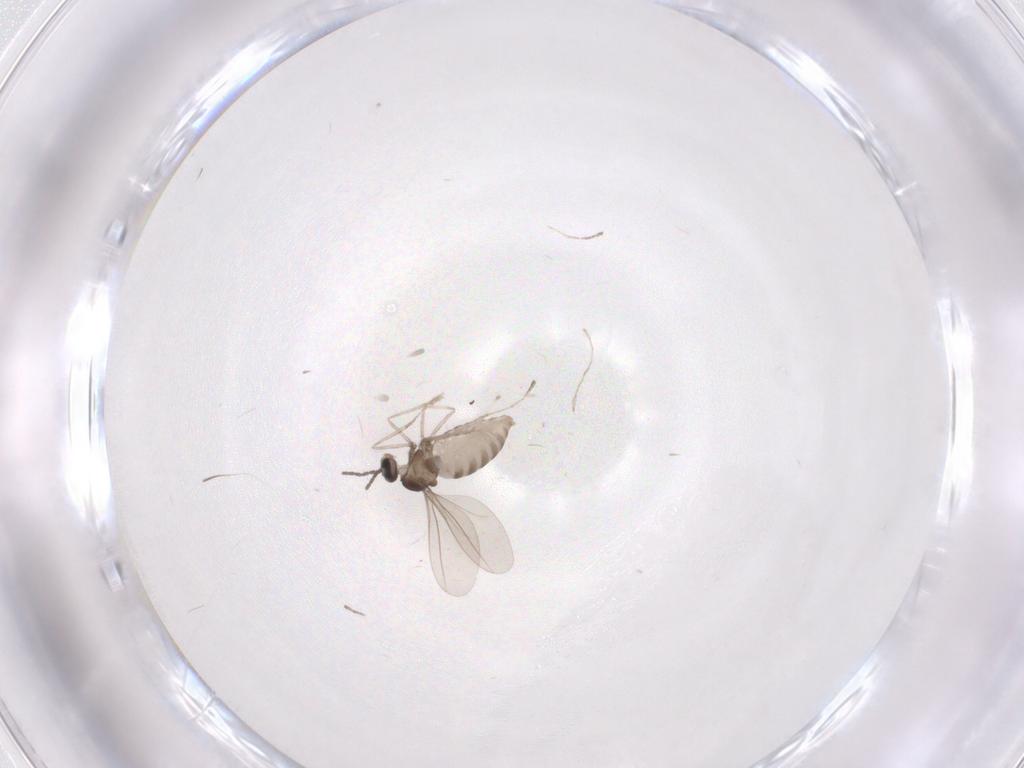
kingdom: Animalia
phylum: Arthropoda
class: Insecta
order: Diptera
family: Cecidomyiidae
